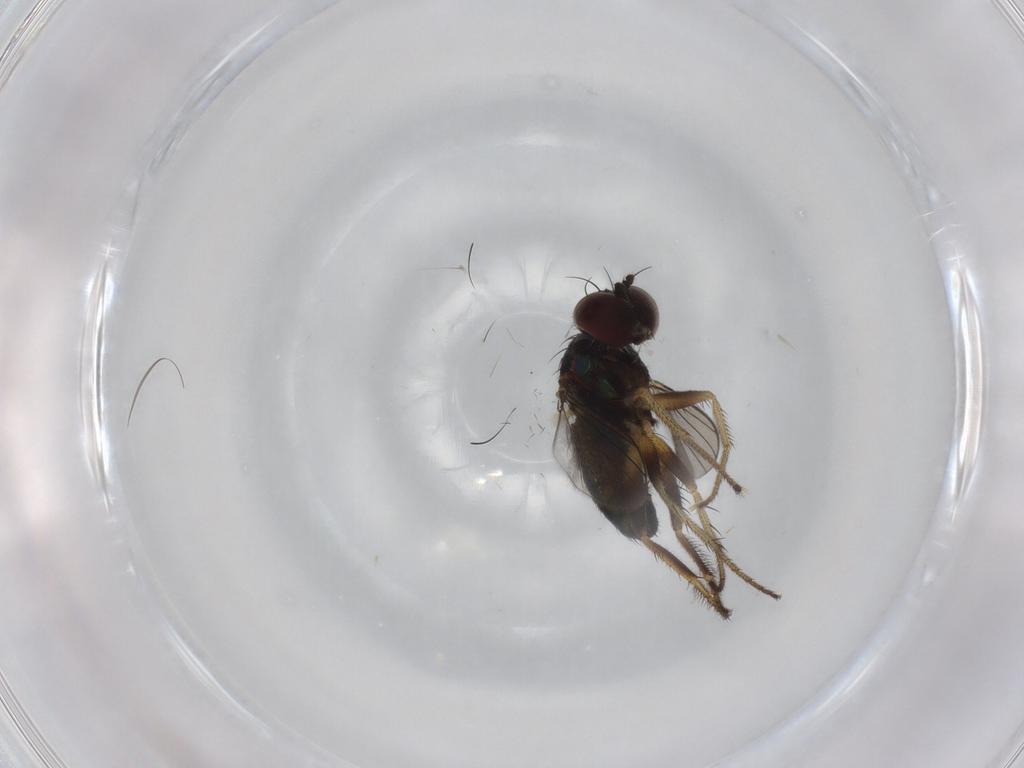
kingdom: Animalia
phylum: Arthropoda
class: Insecta
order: Diptera
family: Dolichopodidae
